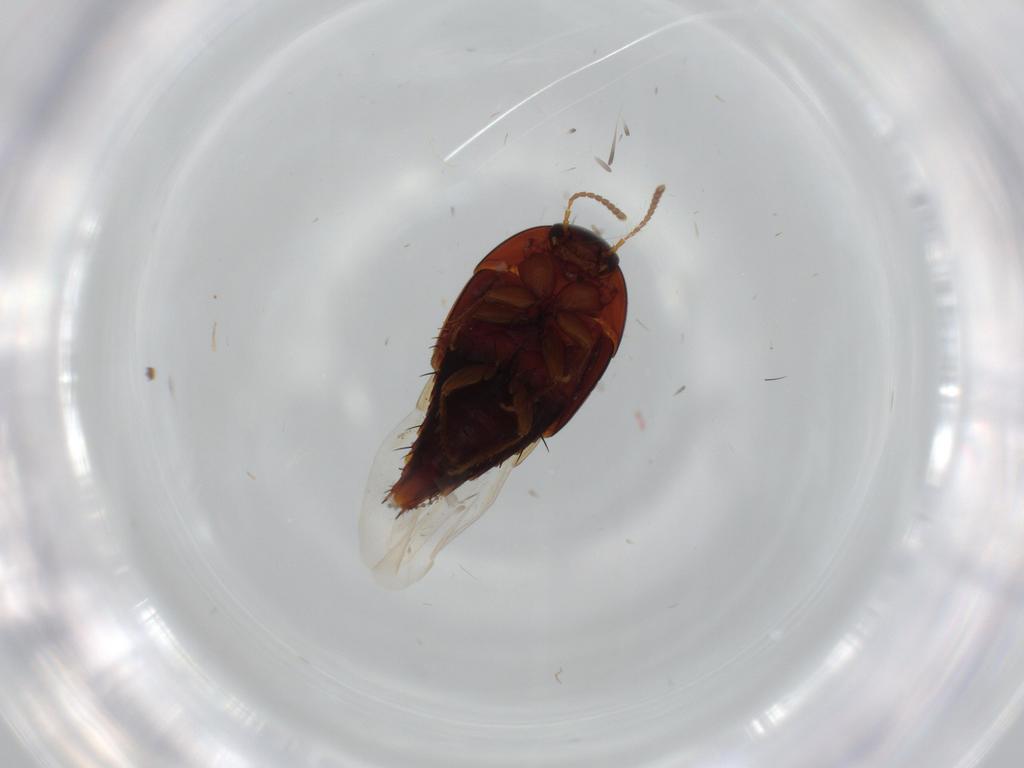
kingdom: Animalia
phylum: Arthropoda
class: Insecta
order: Coleoptera
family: Staphylinidae
